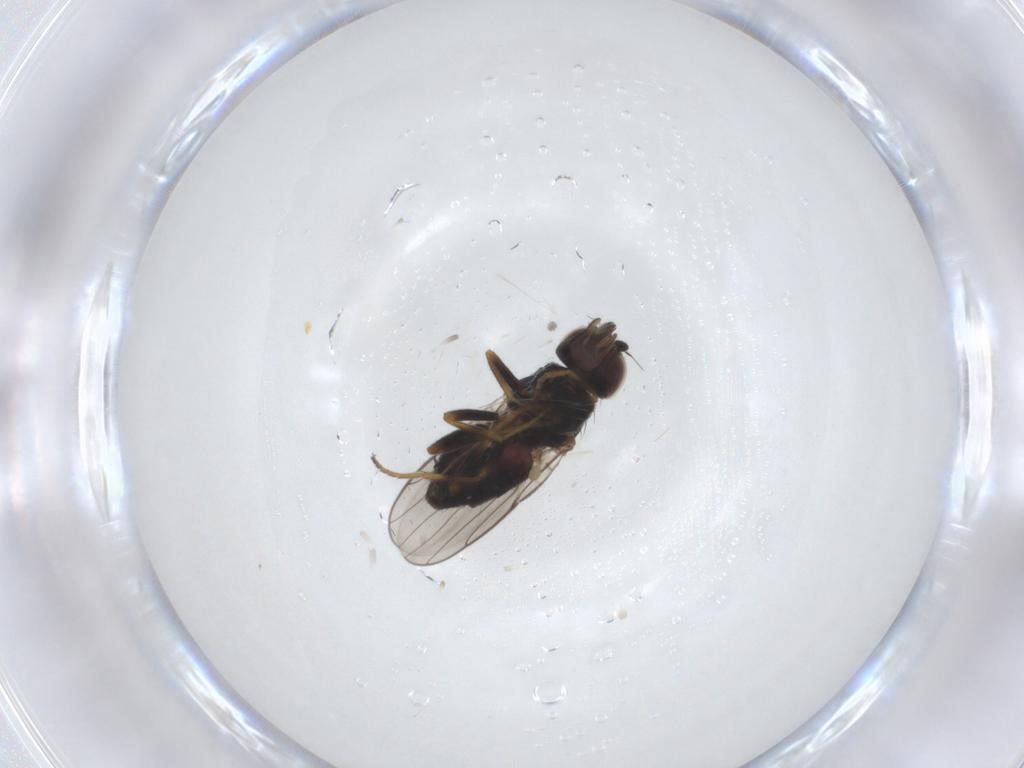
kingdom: Animalia
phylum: Arthropoda
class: Insecta
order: Diptera
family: Chloropidae
